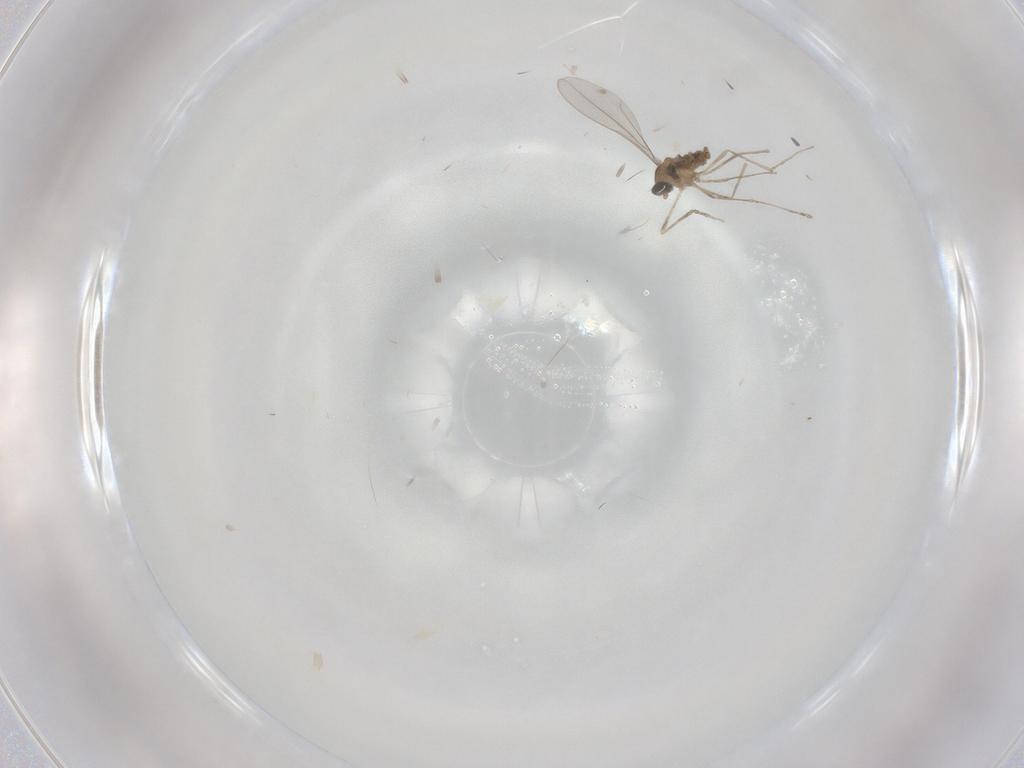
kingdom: Animalia
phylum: Arthropoda
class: Insecta
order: Diptera
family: Cecidomyiidae
